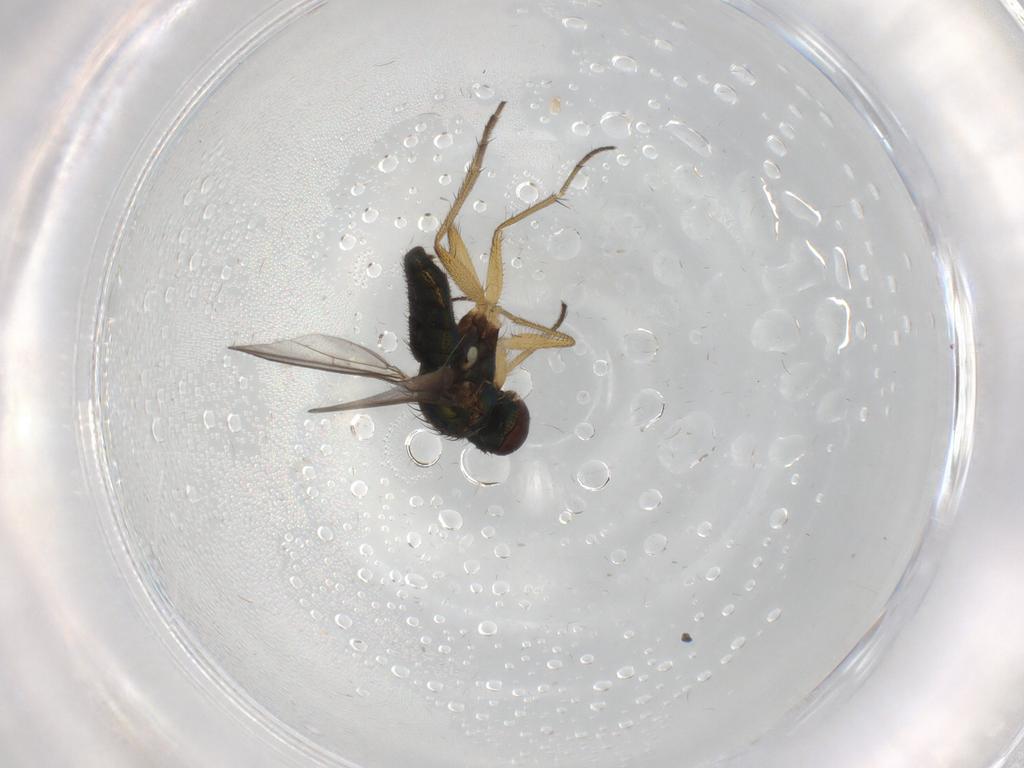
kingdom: Animalia
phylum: Arthropoda
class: Insecta
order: Diptera
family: Dolichopodidae
